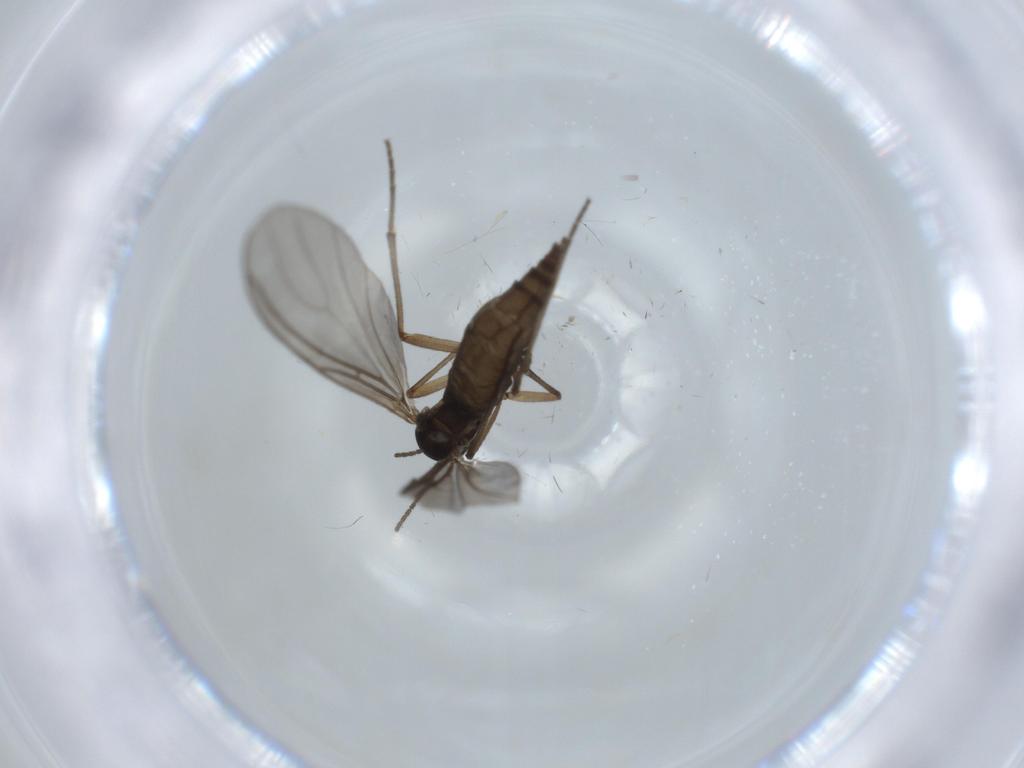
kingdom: Animalia
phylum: Arthropoda
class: Insecta
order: Diptera
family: Sciaridae
